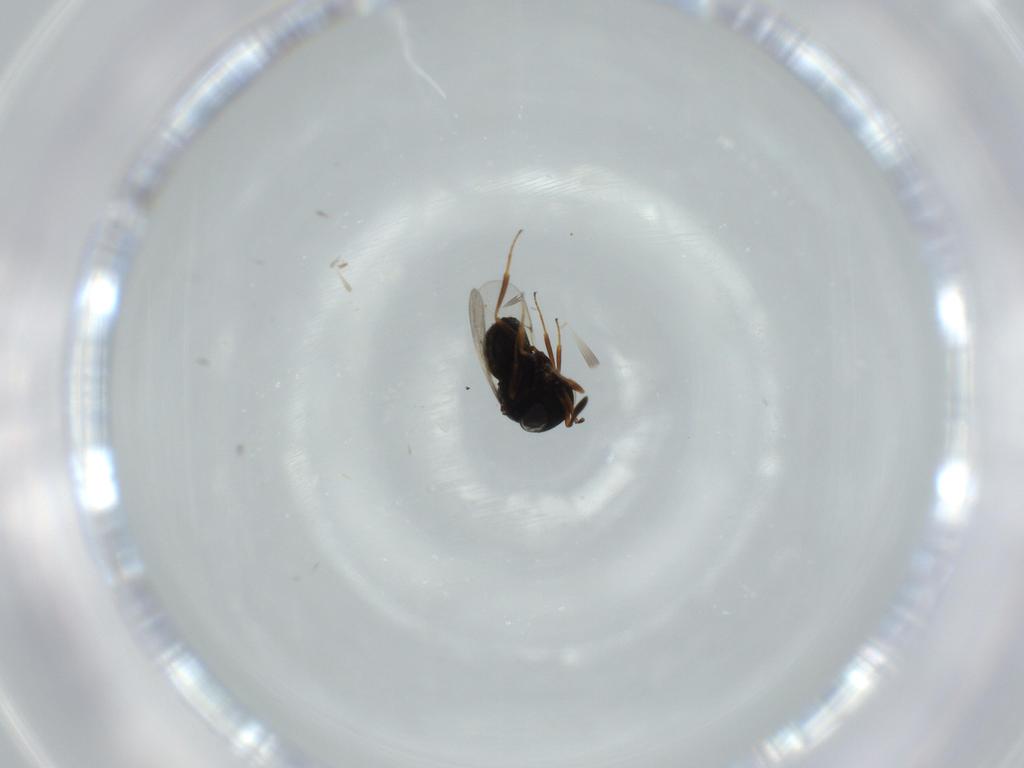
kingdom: Animalia
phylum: Arthropoda
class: Insecta
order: Hymenoptera
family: Scelionidae
